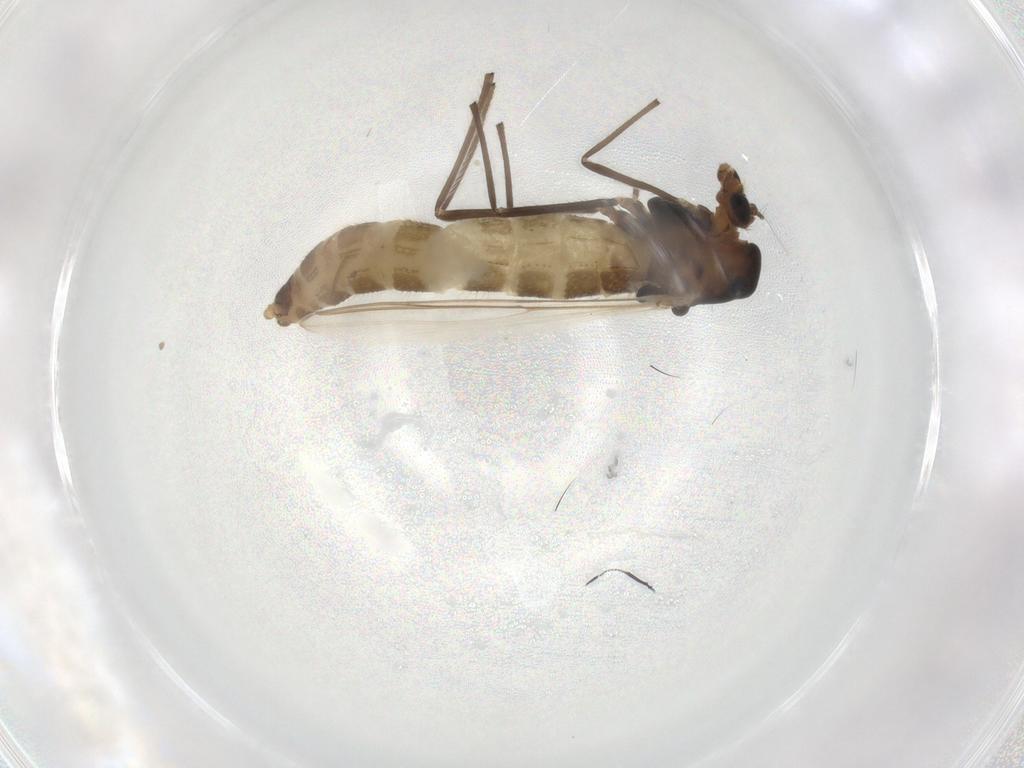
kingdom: Animalia
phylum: Arthropoda
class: Insecta
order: Diptera
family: Chironomidae
